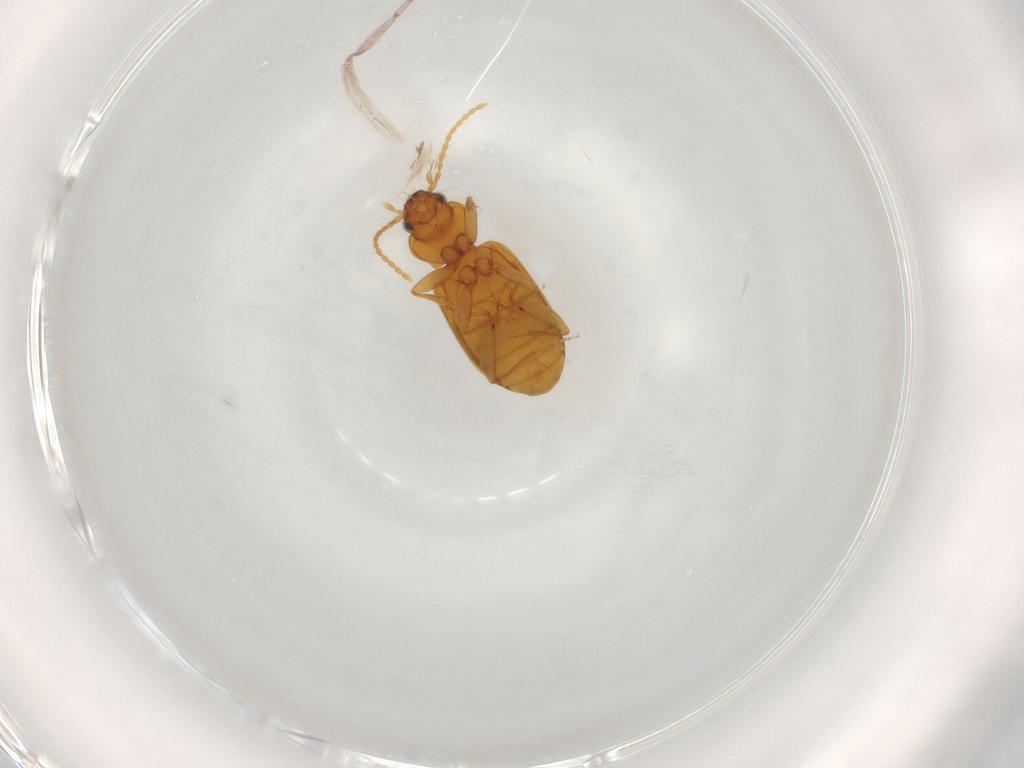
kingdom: Animalia
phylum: Arthropoda
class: Insecta
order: Coleoptera
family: Carabidae
